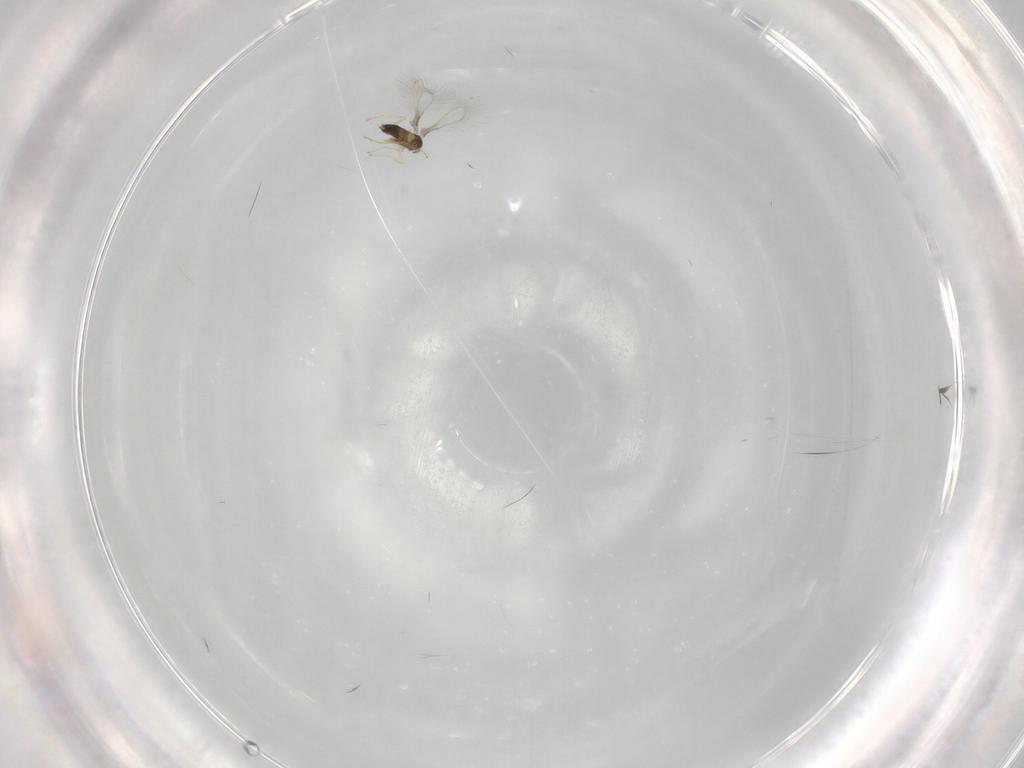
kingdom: Animalia
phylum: Arthropoda
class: Insecta
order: Hymenoptera
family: Mymaridae
